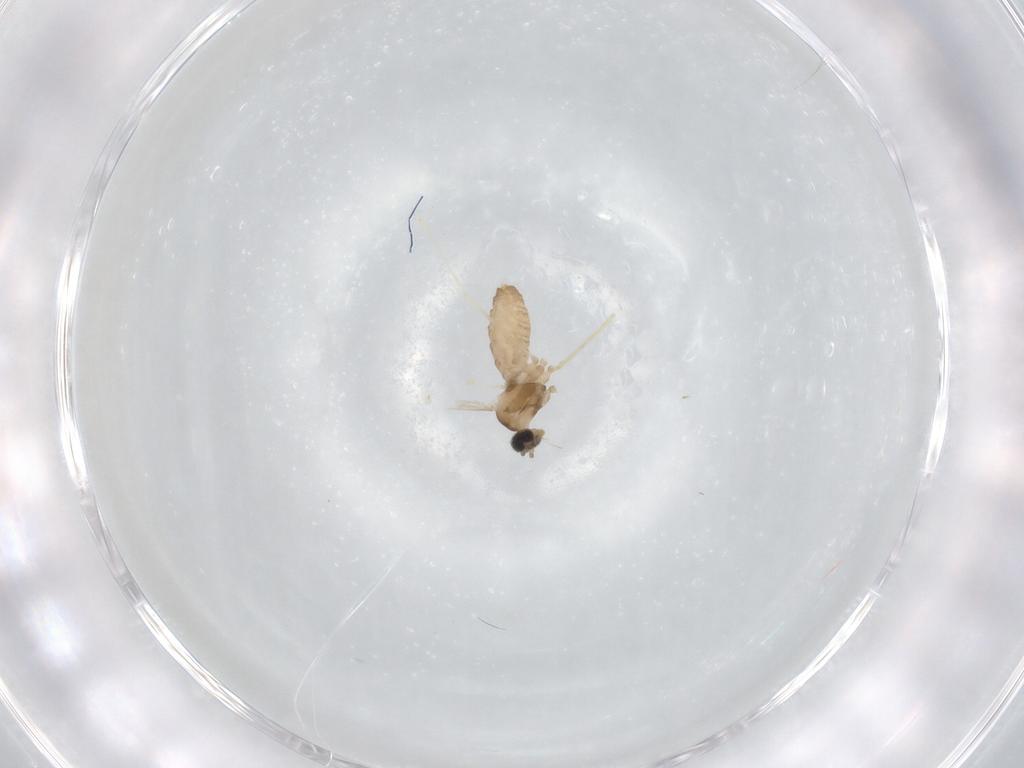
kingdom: Animalia
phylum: Arthropoda
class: Insecta
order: Diptera
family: Cecidomyiidae
